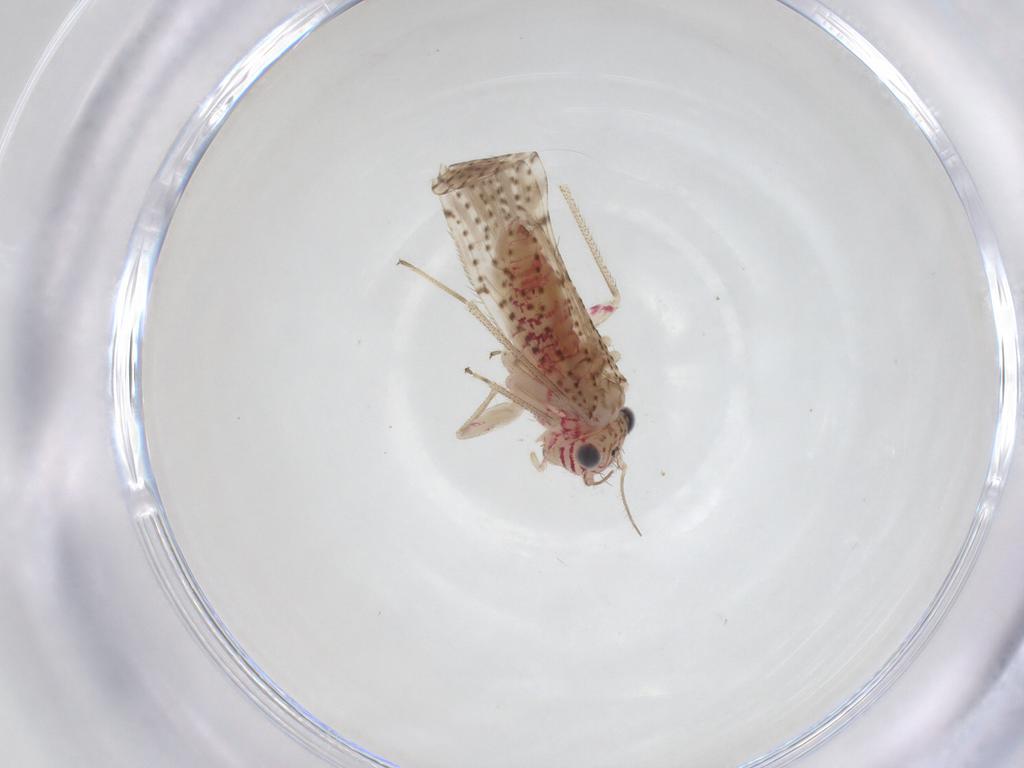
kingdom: Animalia
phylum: Arthropoda
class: Insecta
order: Psocodea
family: Philotarsidae
